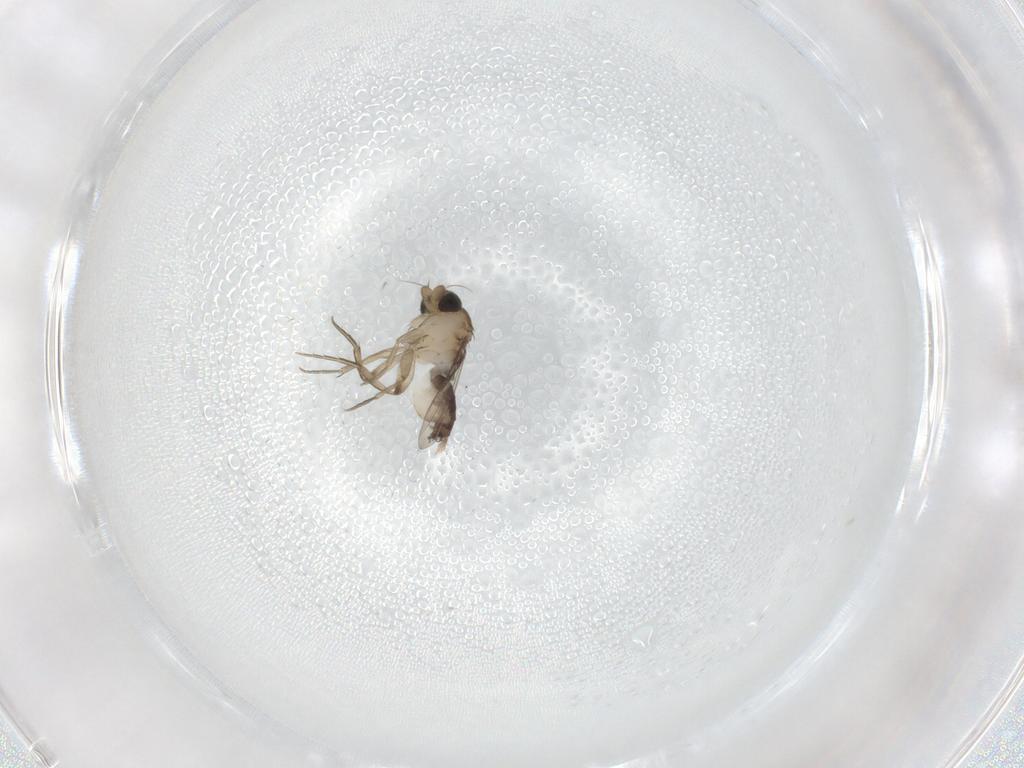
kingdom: Animalia
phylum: Arthropoda
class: Insecta
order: Diptera
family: Phoridae
